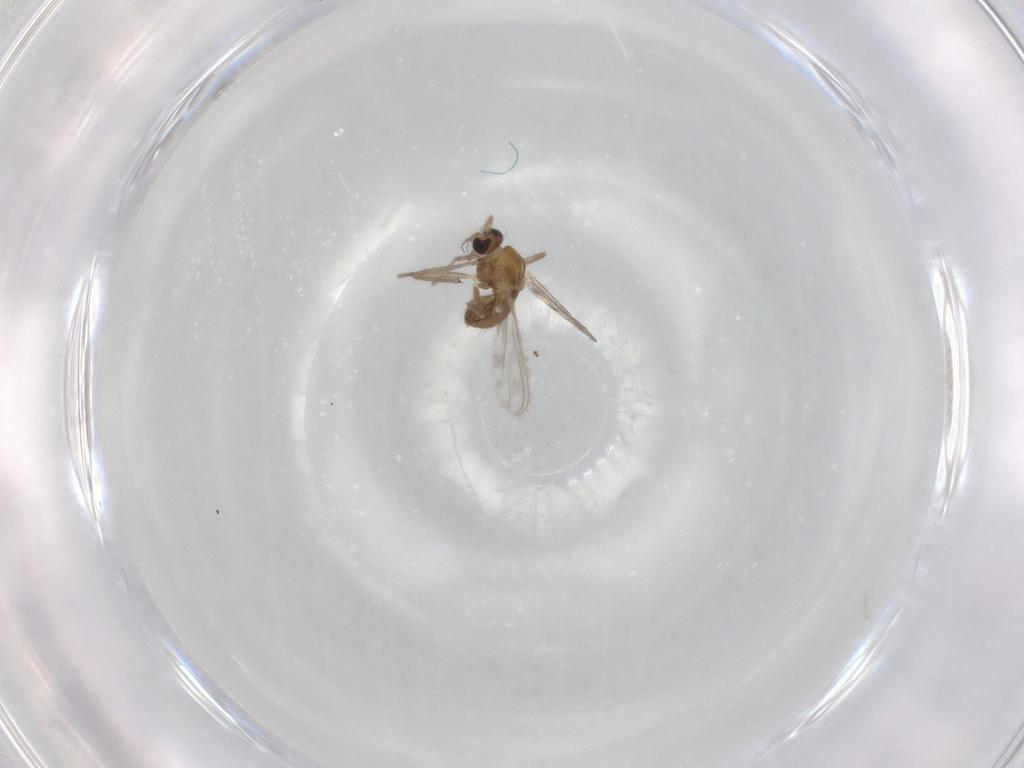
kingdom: Animalia
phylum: Arthropoda
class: Insecta
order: Diptera
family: Chironomidae
